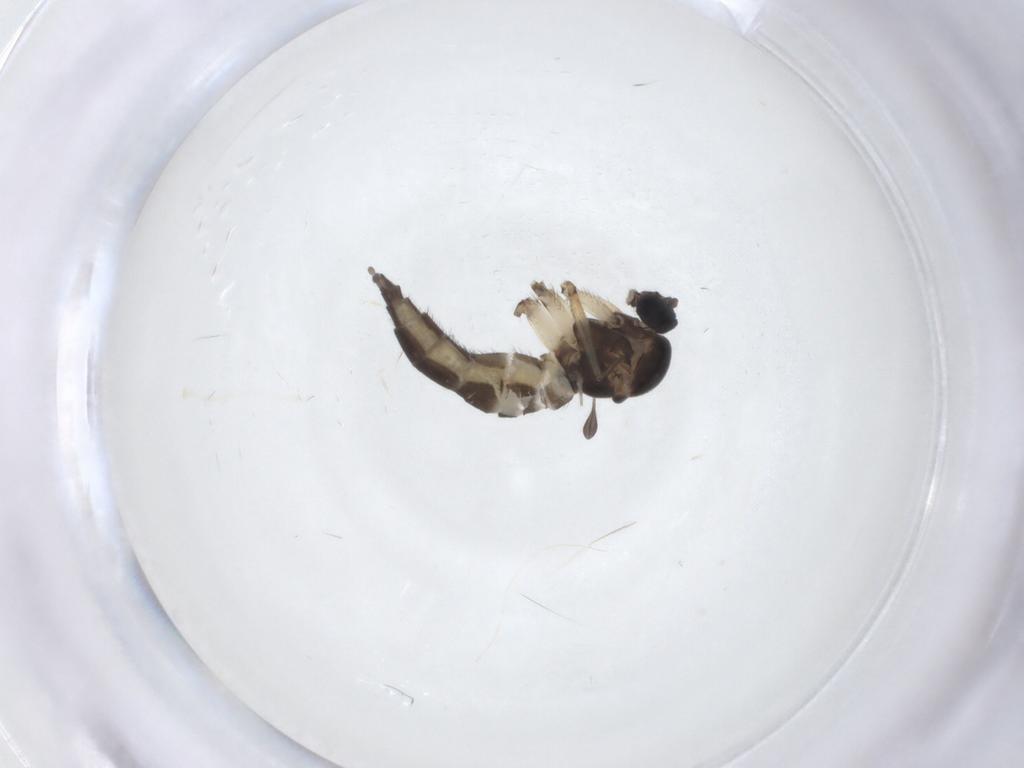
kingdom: Animalia
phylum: Arthropoda
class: Insecta
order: Diptera
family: Sciaridae
